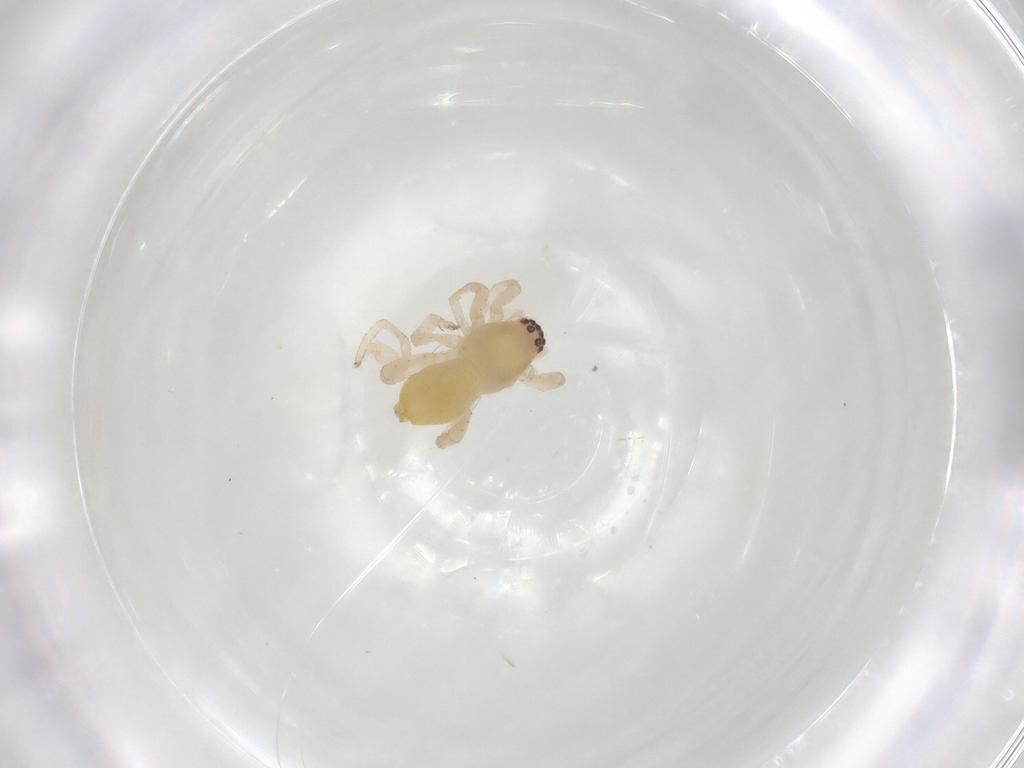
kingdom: Animalia
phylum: Arthropoda
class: Arachnida
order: Araneae
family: Clubionidae
